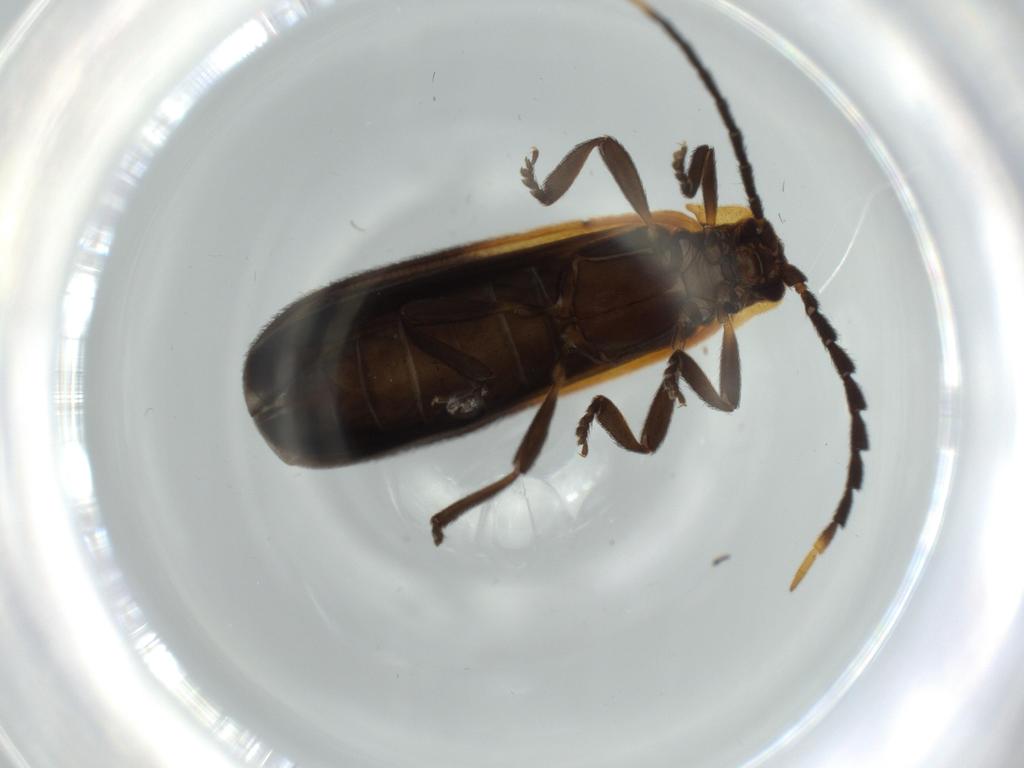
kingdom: Animalia
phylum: Arthropoda
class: Insecta
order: Coleoptera
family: Lycidae
